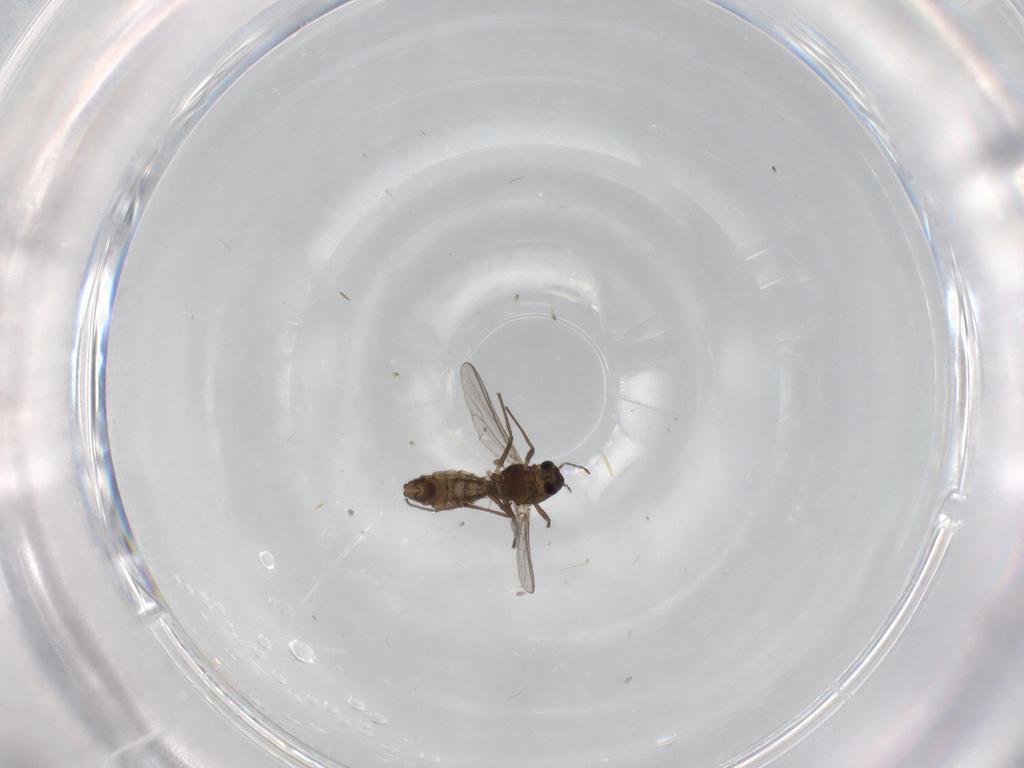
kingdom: Animalia
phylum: Arthropoda
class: Insecta
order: Diptera
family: Chironomidae
